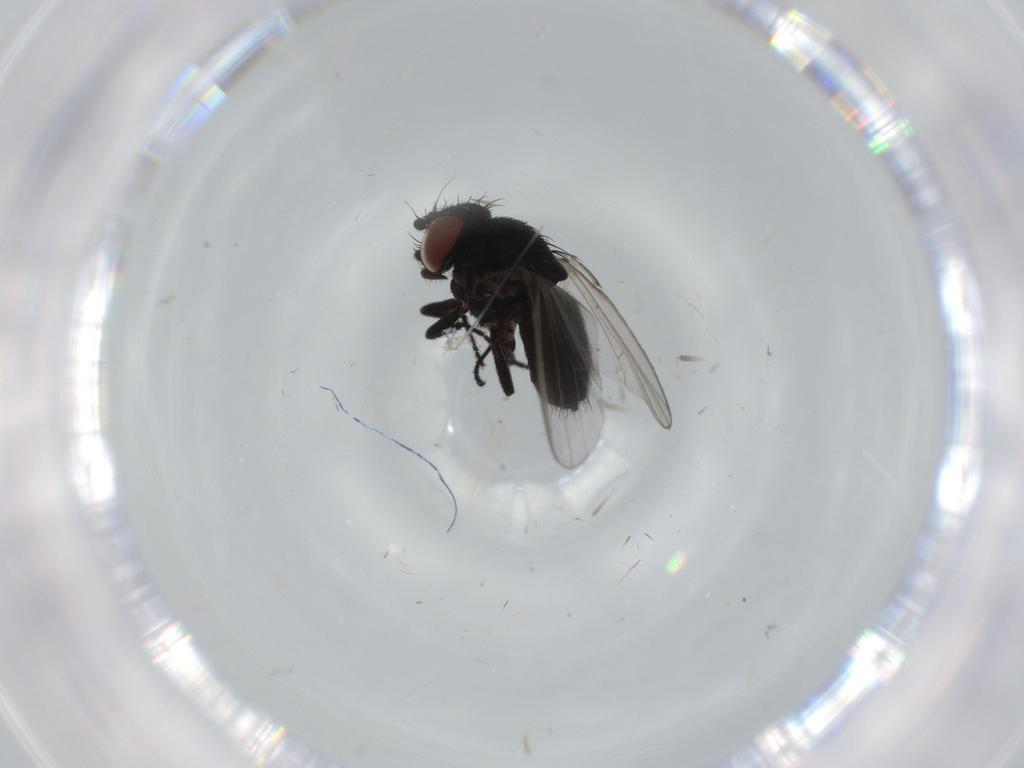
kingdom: Animalia
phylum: Arthropoda
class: Insecta
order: Diptera
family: Milichiidae
